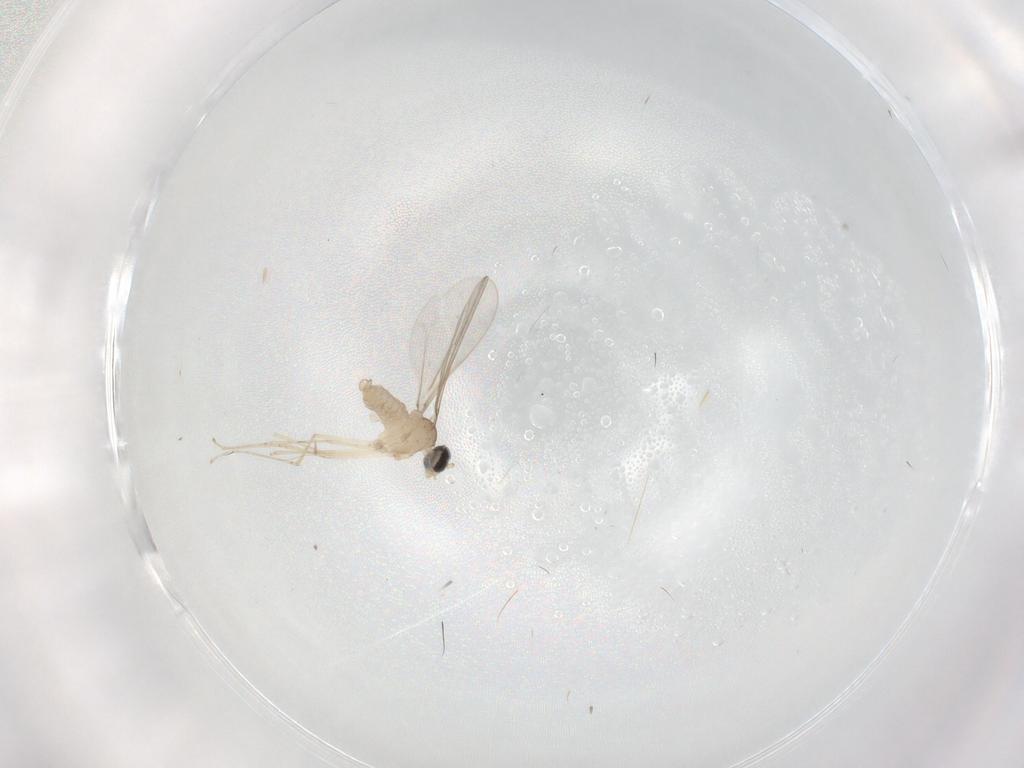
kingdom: Animalia
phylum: Arthropoda
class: Insecta
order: Diptera
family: Cecidomyiidae
